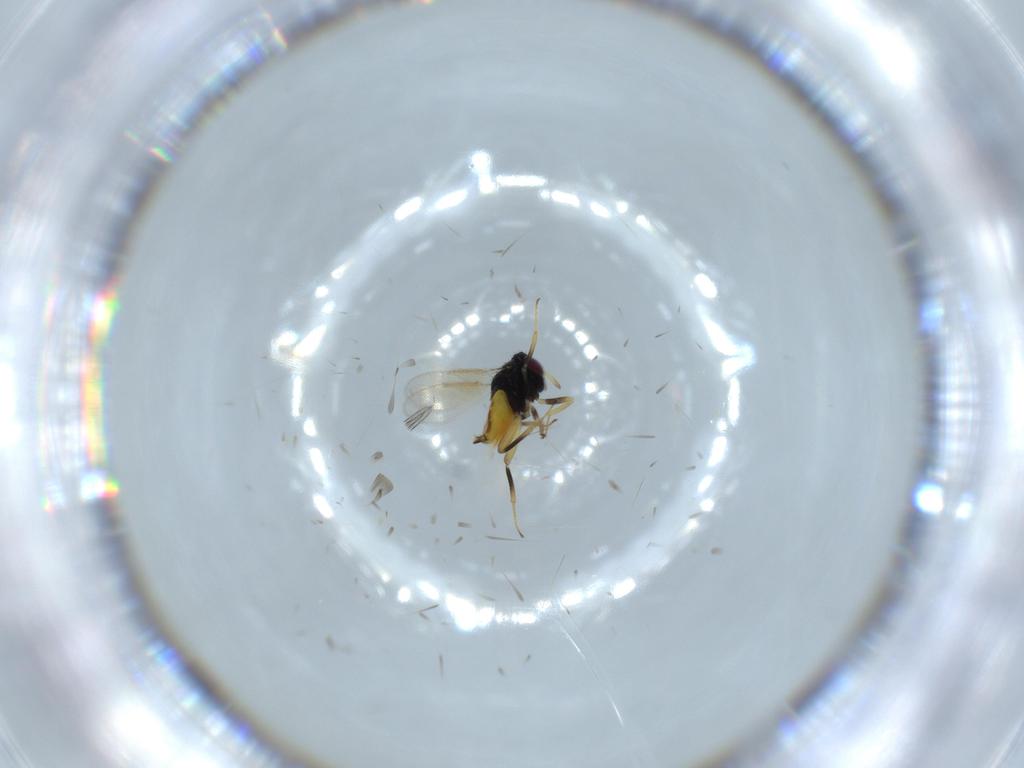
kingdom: Animalia
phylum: Arthropoda
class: Insecta
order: Hymenoptera
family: Aphelinidae
